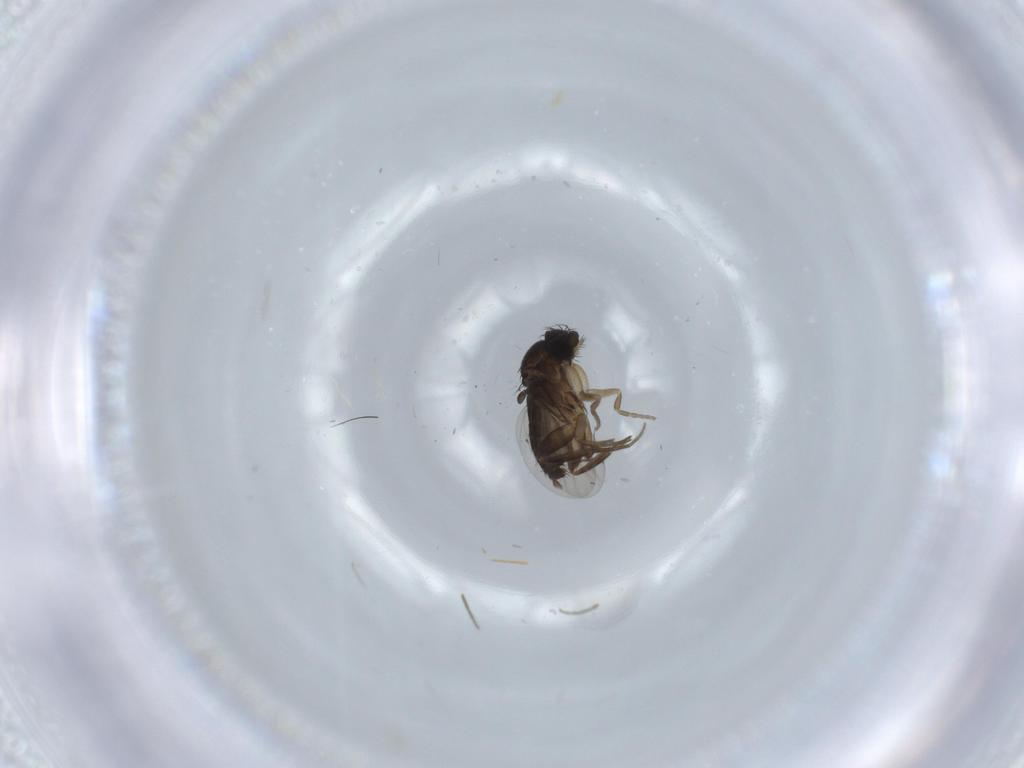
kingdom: Animalia
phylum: Arthropoda
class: Insecta
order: Diptera
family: Phoridae
